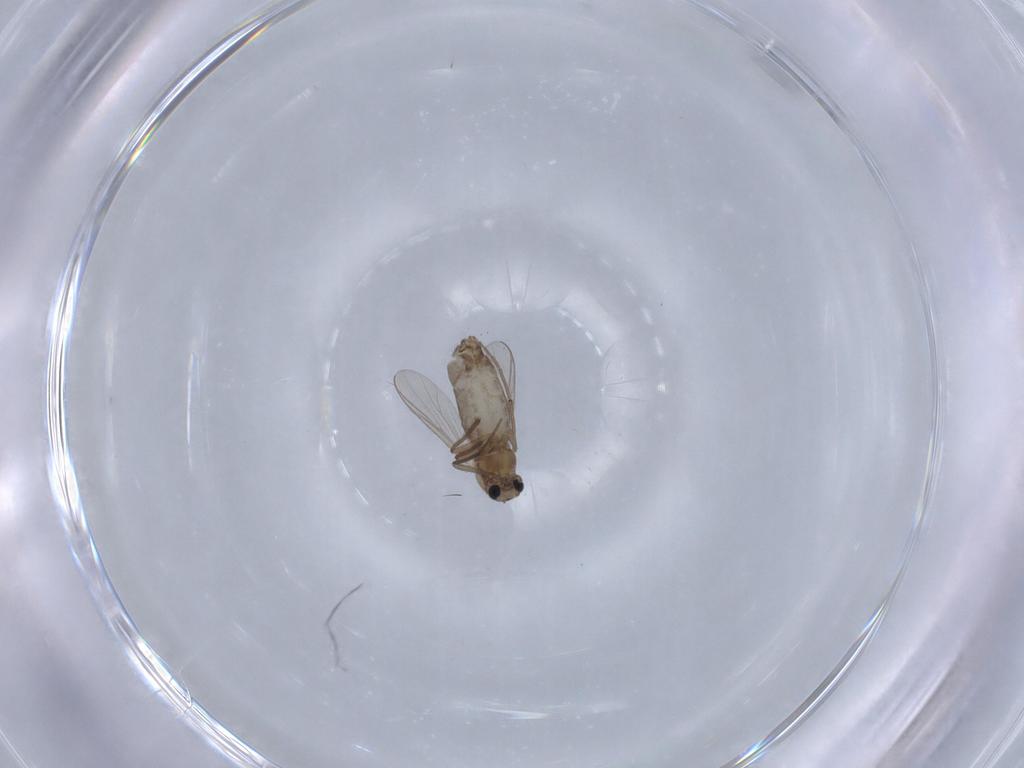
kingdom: Animalia
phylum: Arthropoda
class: Insecta
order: Diptera
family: Chironomidae
